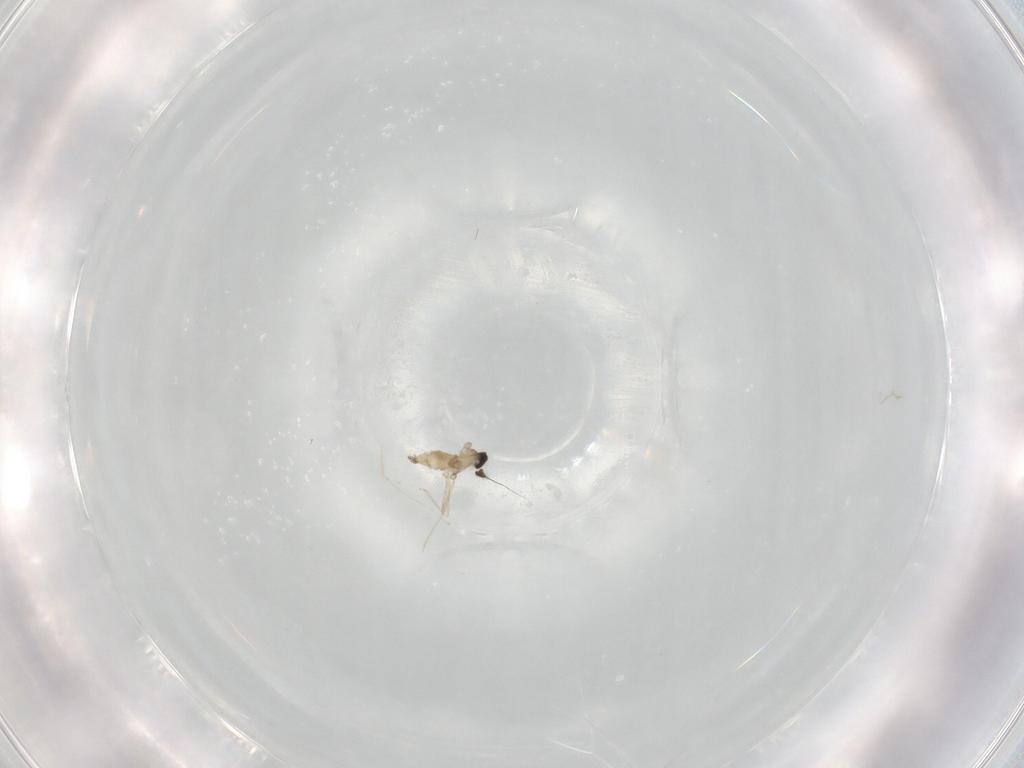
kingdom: Animalia
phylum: Arthropoda
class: Insecta
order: Diptera
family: Cecidomyiidae
